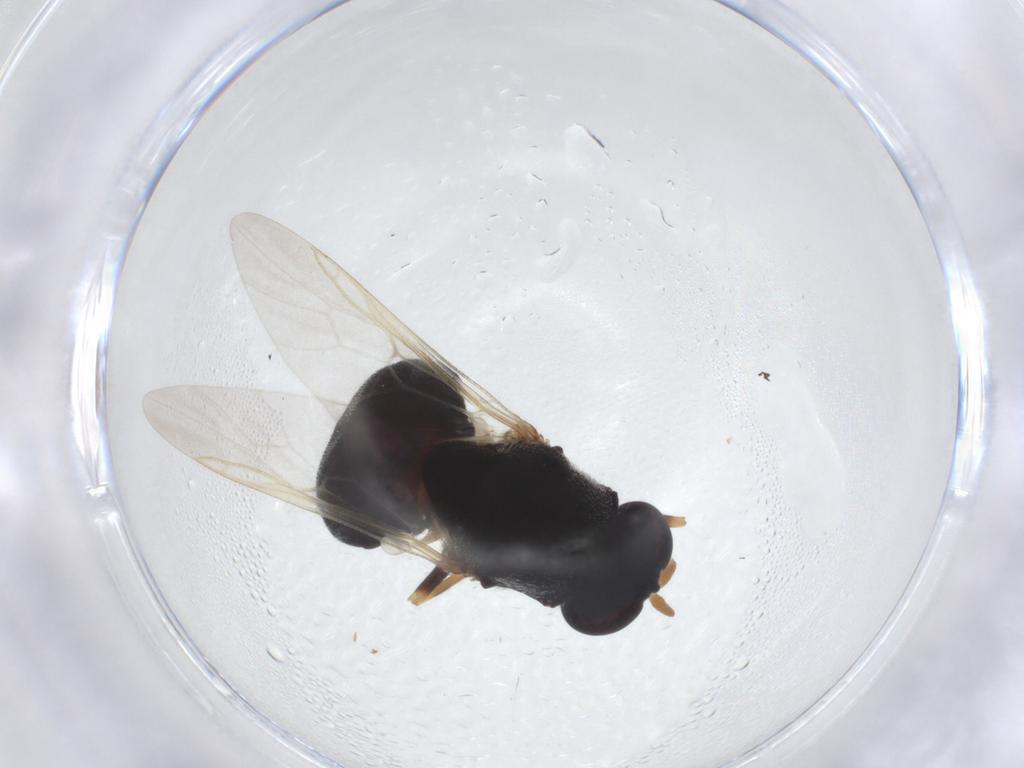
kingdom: Animalia
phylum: Arthropoda
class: Insecta
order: Diptera
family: Stratiomyidae
